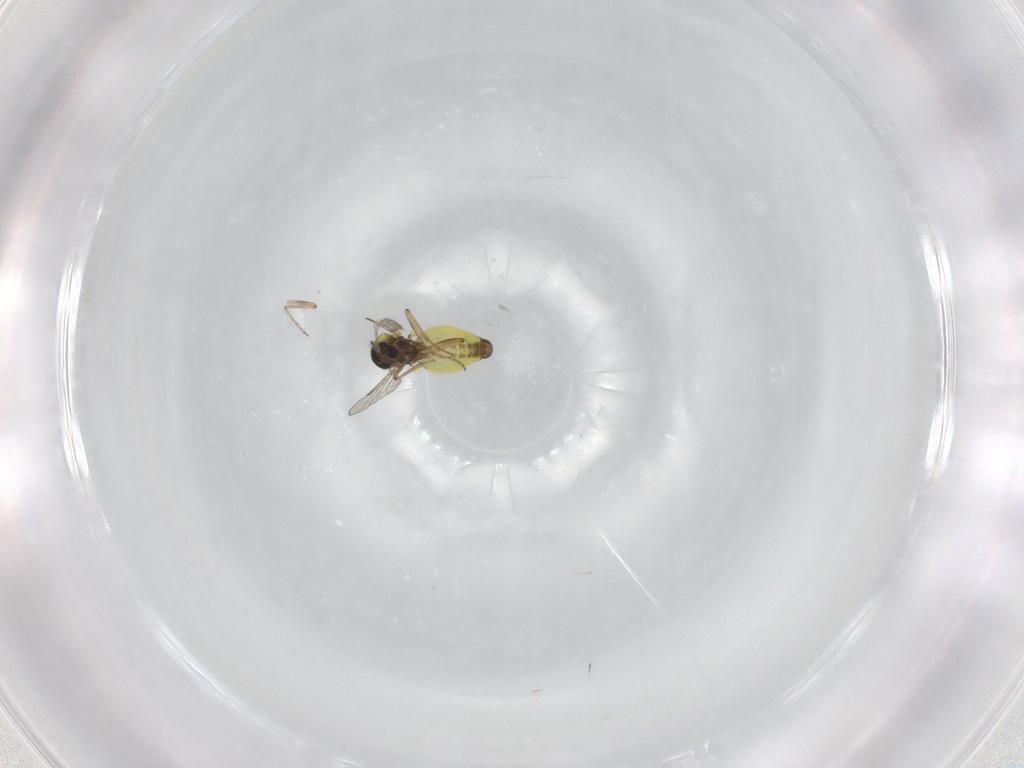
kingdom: Animalia
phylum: Arthropoda
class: Insecta
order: Diptera
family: Ceratopogonidae
